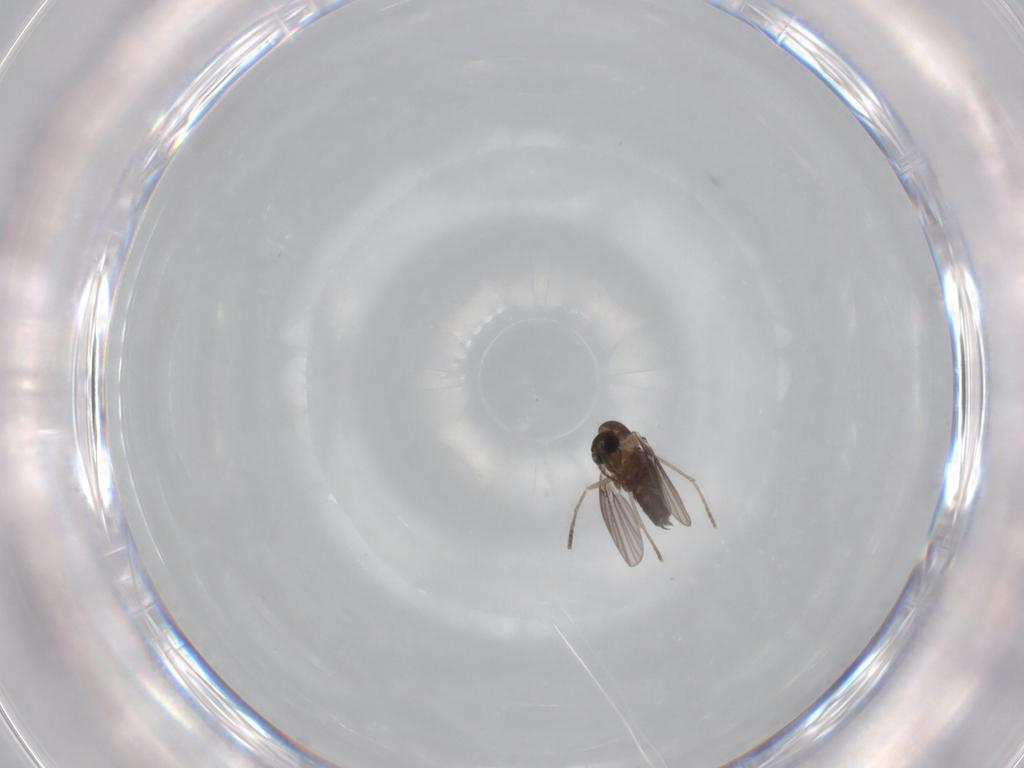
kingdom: Animalia
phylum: Arthropoda
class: Insecta
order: Diptera
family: Cecidomyiidae
